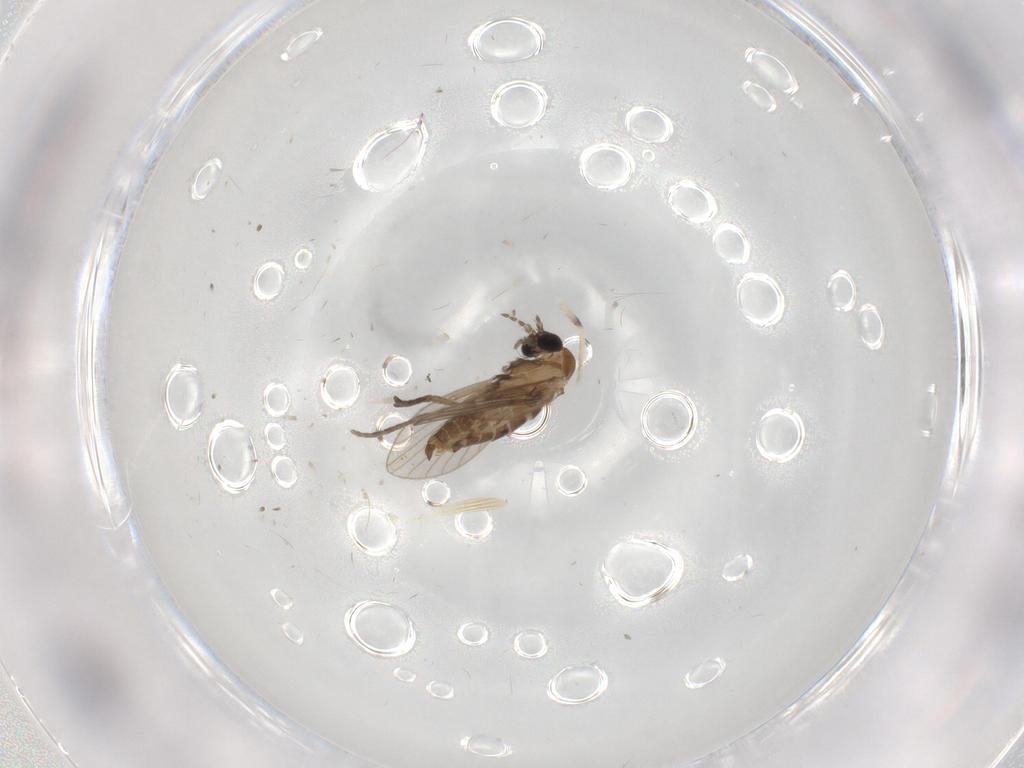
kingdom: Animalia
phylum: Arthropoda
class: Insecta
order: Diptera
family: Psychodidae
